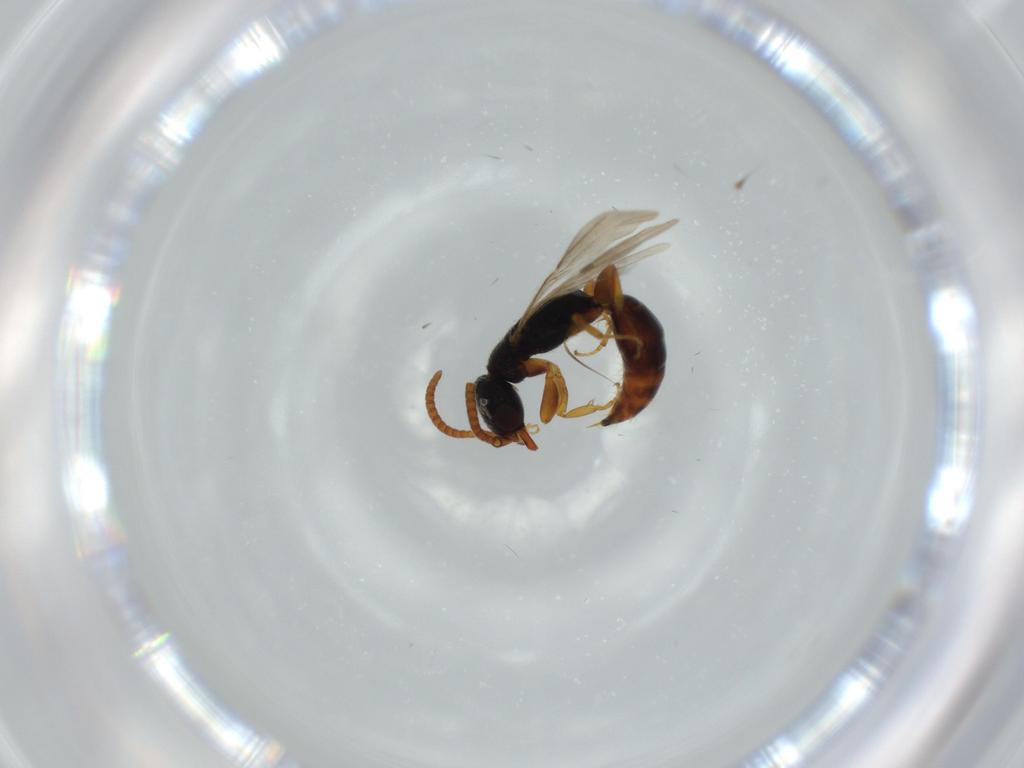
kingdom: Animalia
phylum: Arthropoda
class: Insecta
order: Hymenoptera
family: Bethylidae
